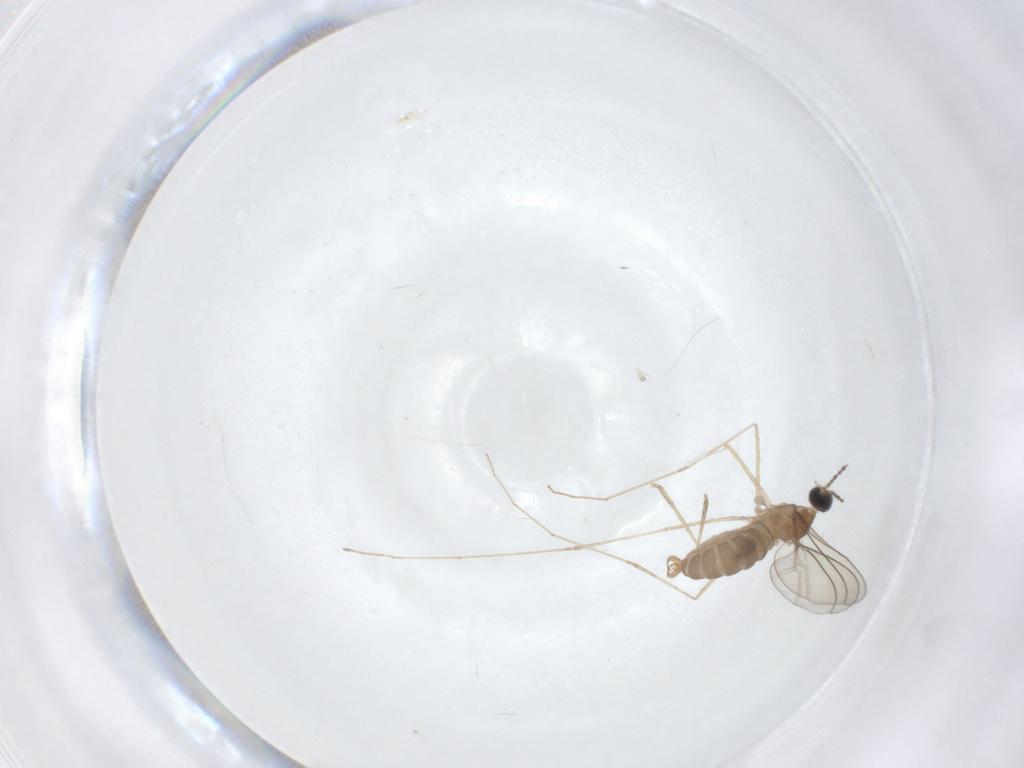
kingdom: Animalia
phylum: Arthropoda
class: Insecta
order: Diptera
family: Cecidomyiidae
